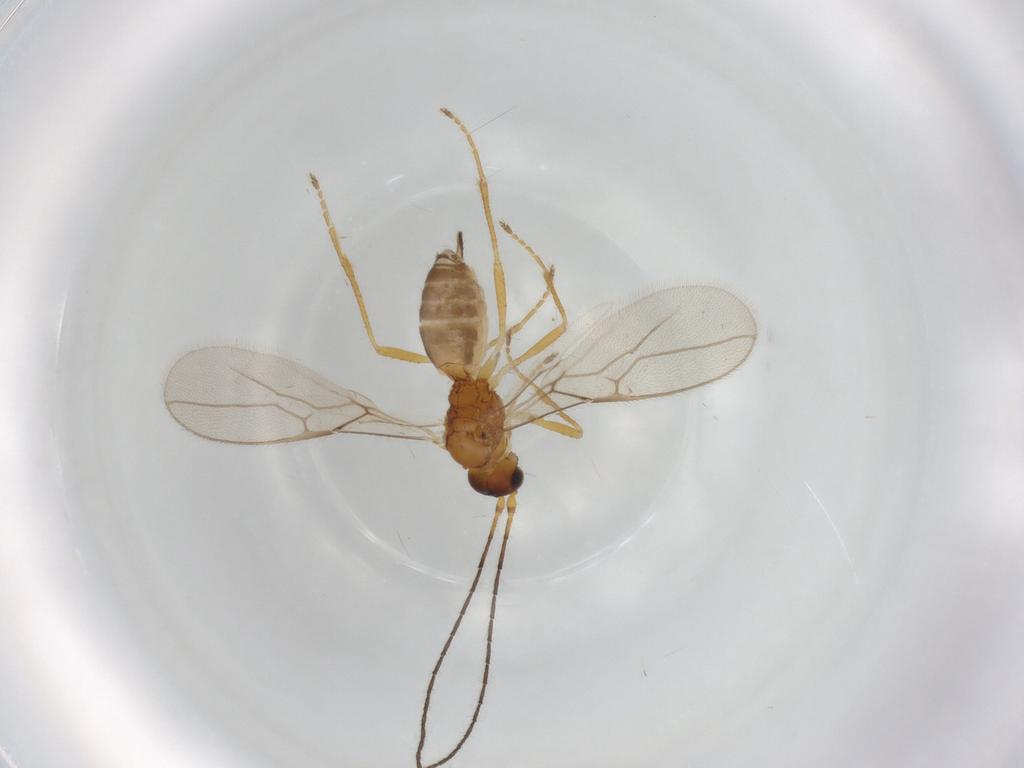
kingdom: Animalia
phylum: Arthropoda
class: Insecta
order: Hymenoptera
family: Braconidae
